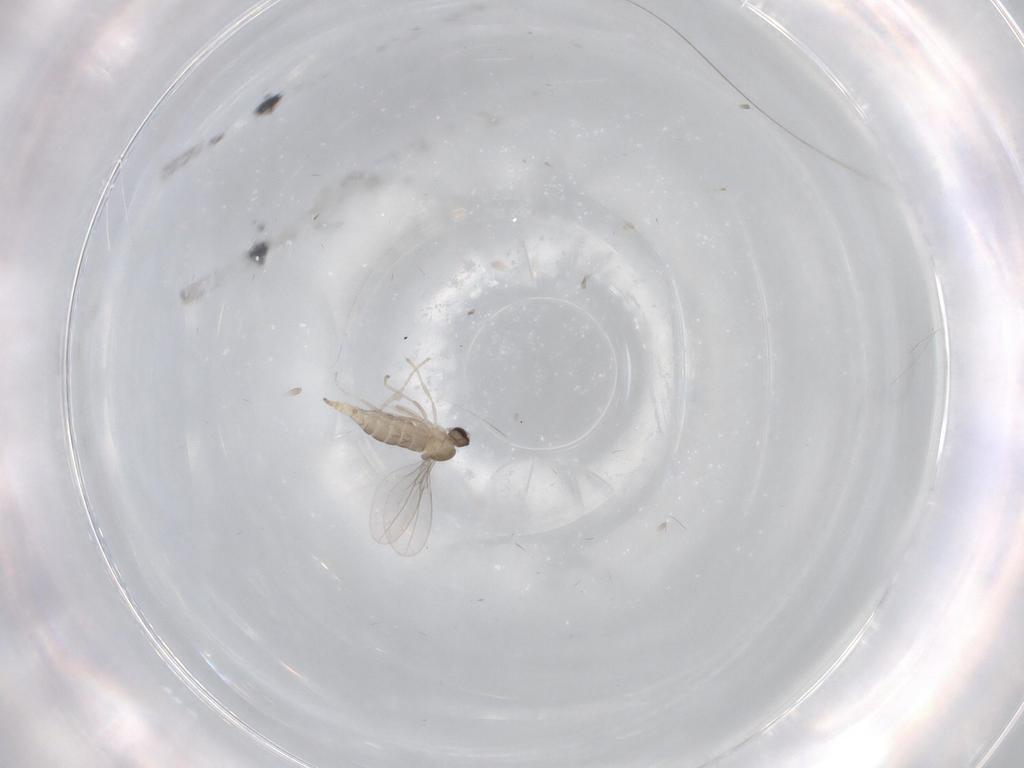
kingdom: Animalia
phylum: Arthropoda
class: Insecta
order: Diptera
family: Cecidomyiidae
